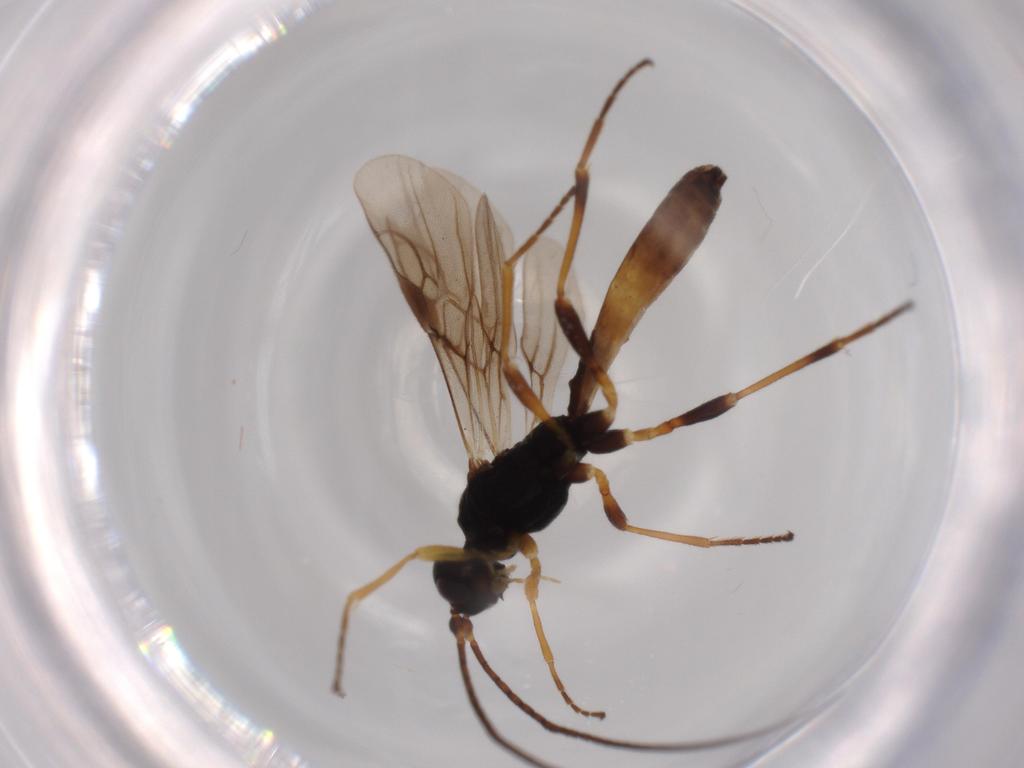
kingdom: Animalia
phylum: Arthropoda
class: Insecta
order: Hymenoptera
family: Braconidae
